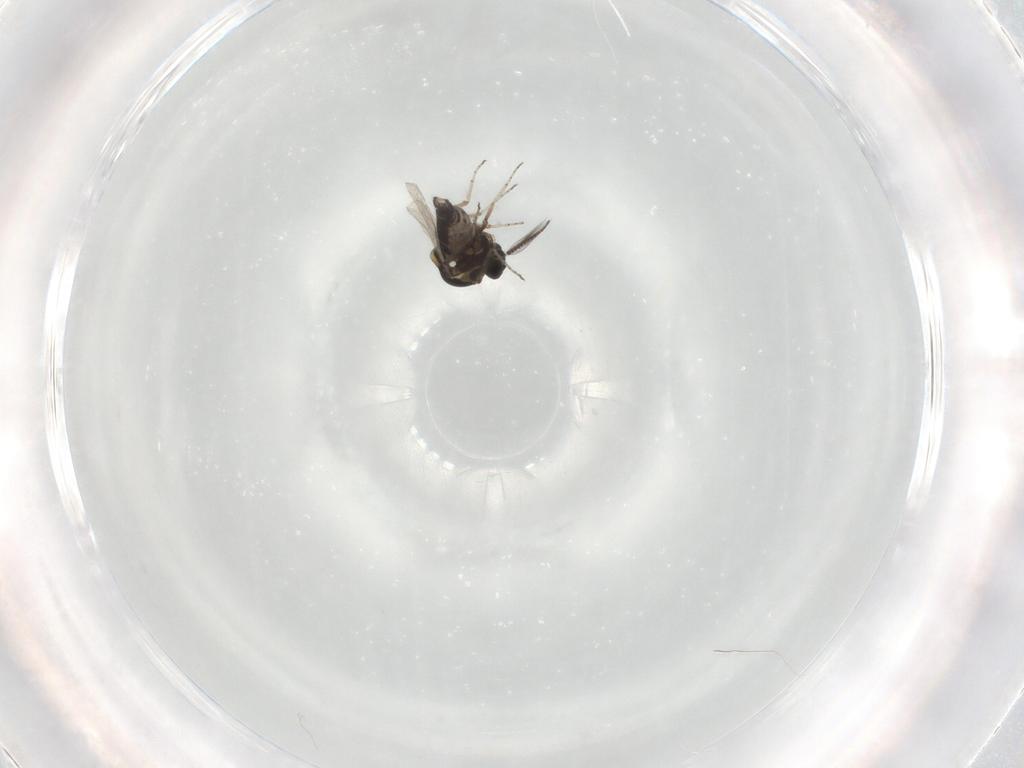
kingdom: Animalia
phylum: Arthropoda
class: Insecta
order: Diptera
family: Ceratopogonidae
